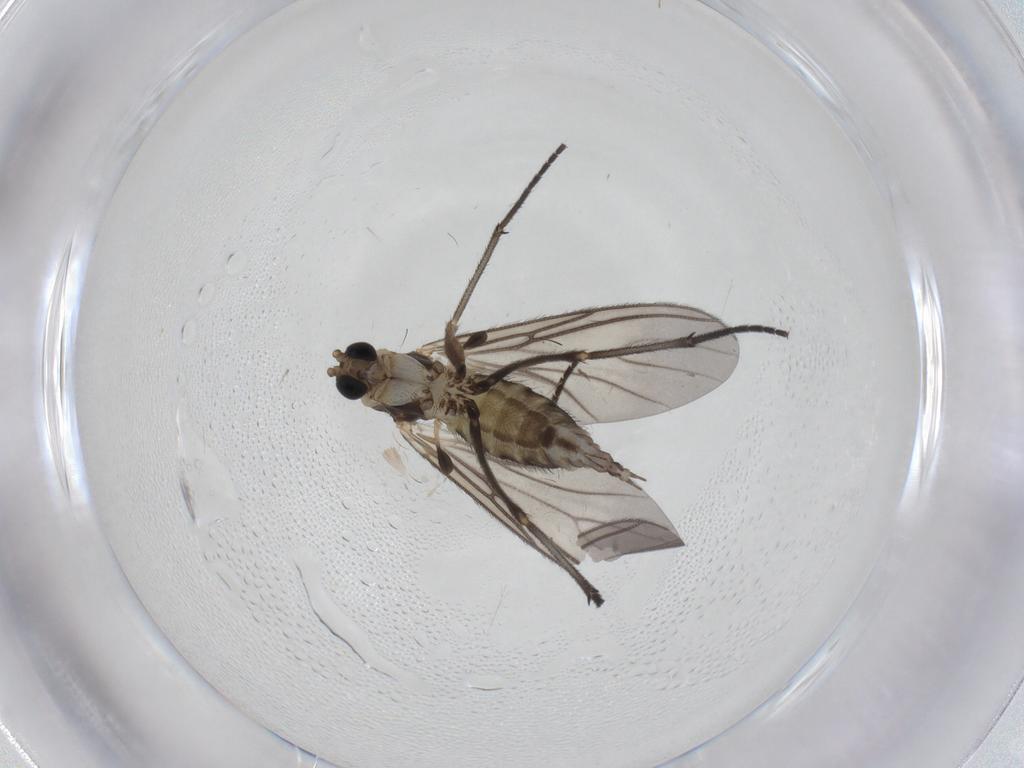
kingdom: Animalia
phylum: Arthropoda
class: Insecta
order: Diptera
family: Sciaridae
